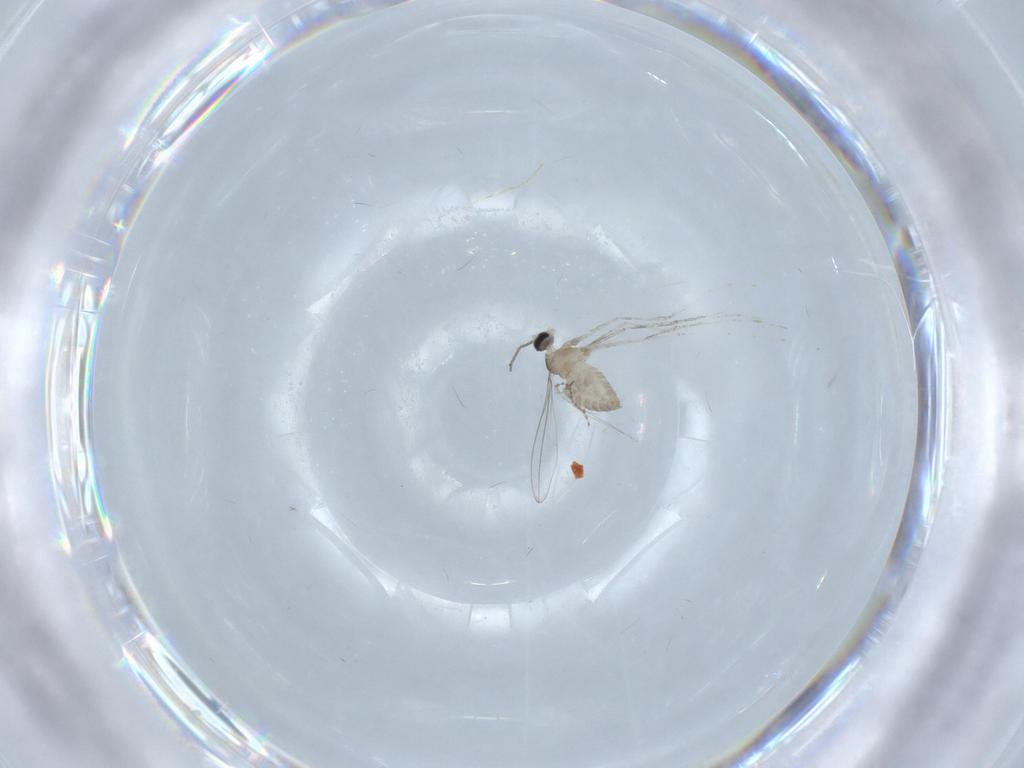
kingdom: Animalia
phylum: Arthropoda
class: Insecta
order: Diptera
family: Cecidomyiidae
